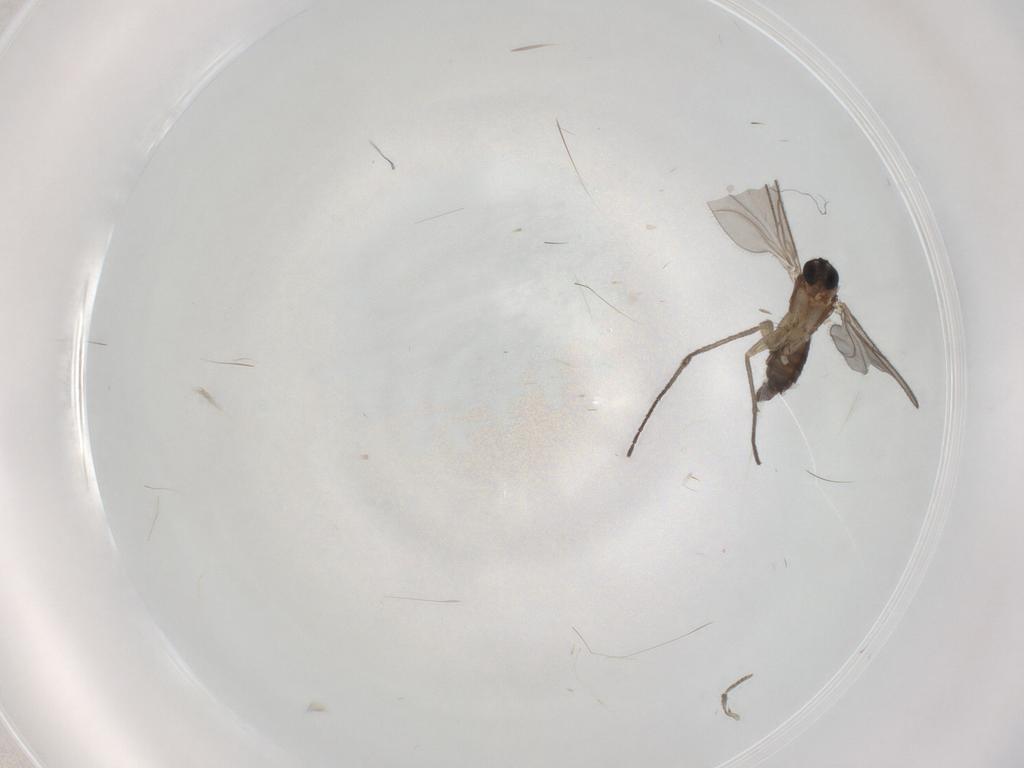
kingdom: Animalia
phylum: Arthropoda
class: Insecta
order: Diptera
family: Sciaridae
